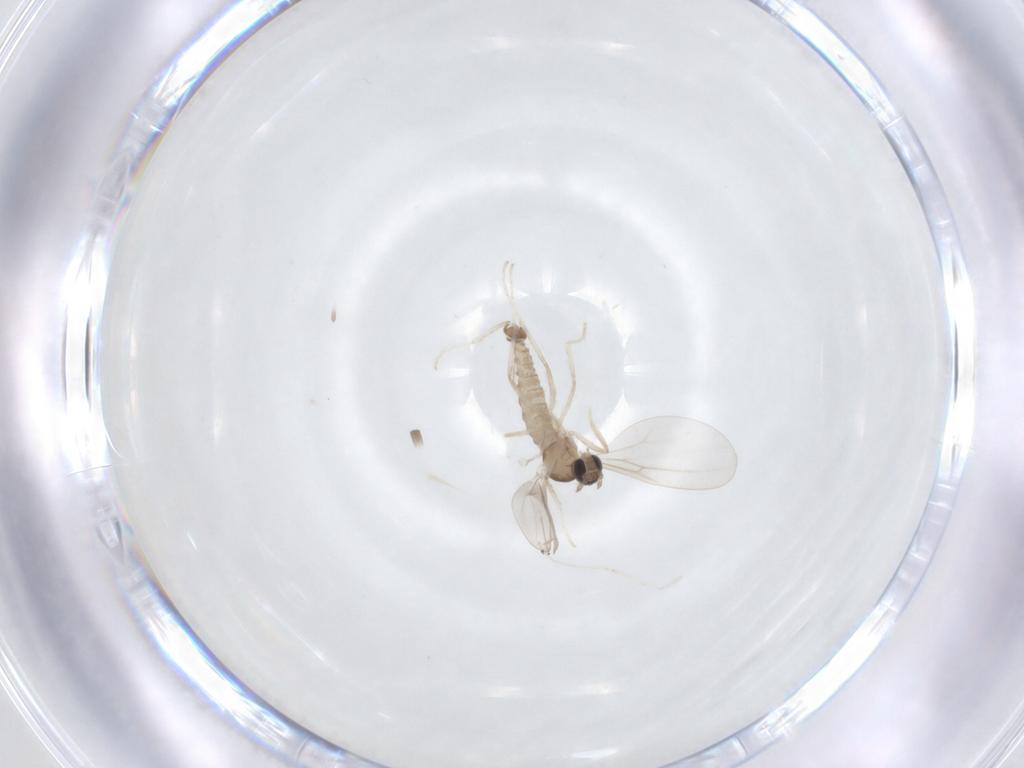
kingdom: Animalia
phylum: Arthropoda
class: Insecta
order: Diptera
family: Cecidomyiidae
